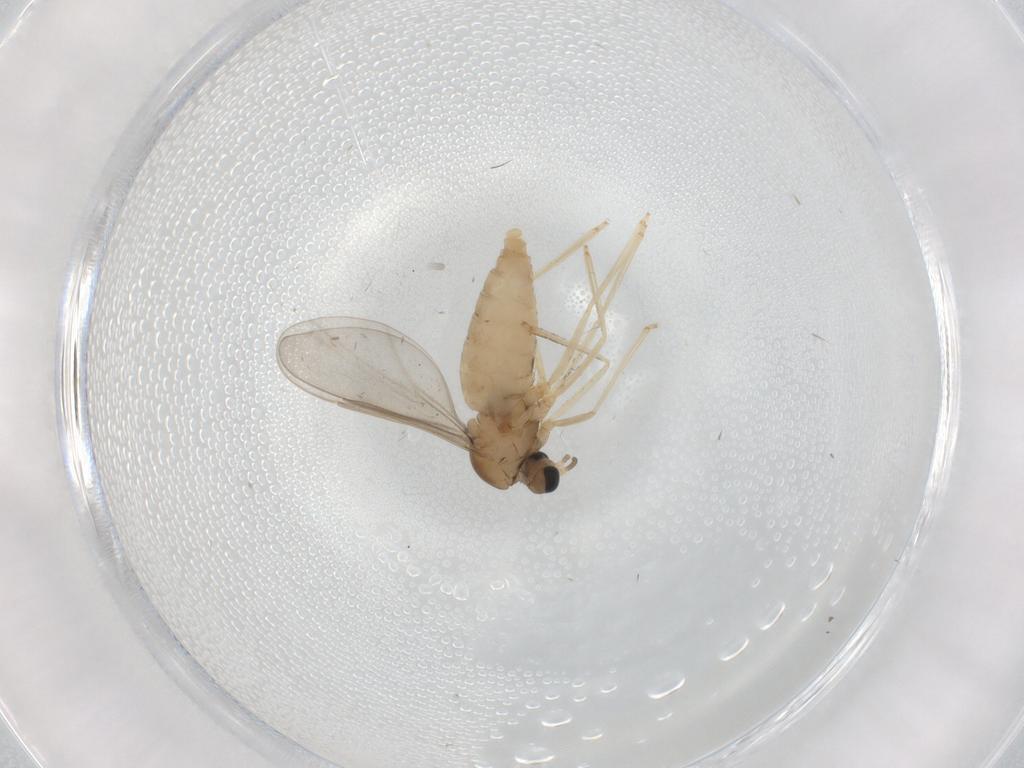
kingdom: Animalia
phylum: Arthropoda
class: Insecta
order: Diptera
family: Cecidomyiidae
